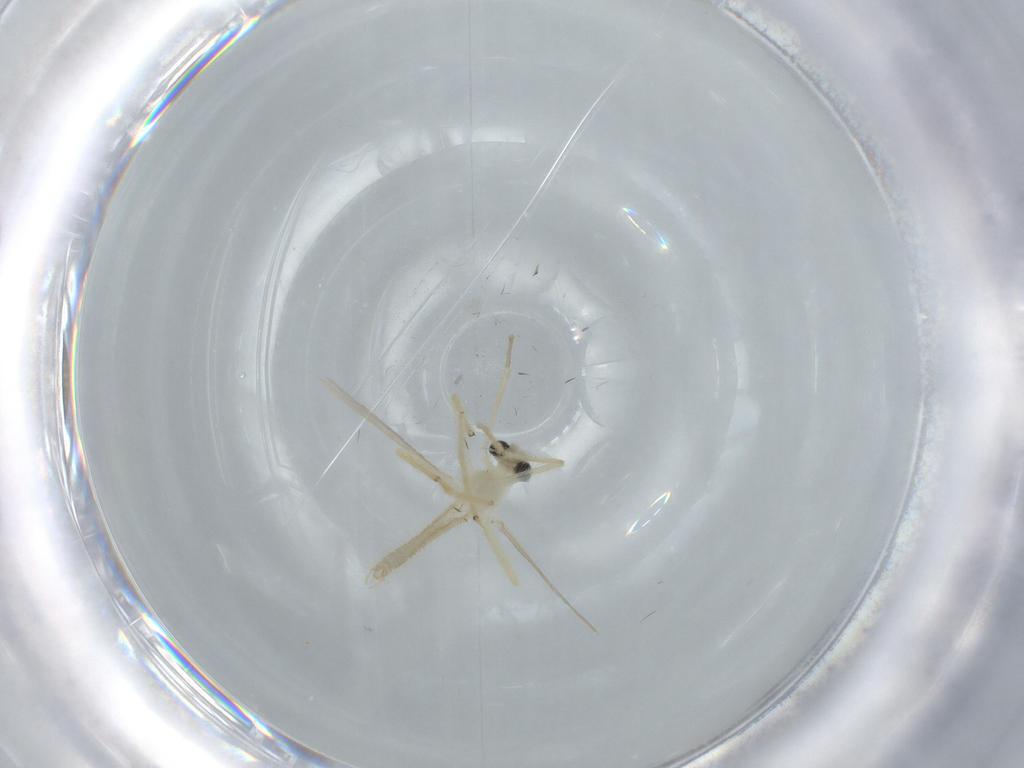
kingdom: Animalia
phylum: Arthropoda
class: Insecta
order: Diptera
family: Chironomidae
